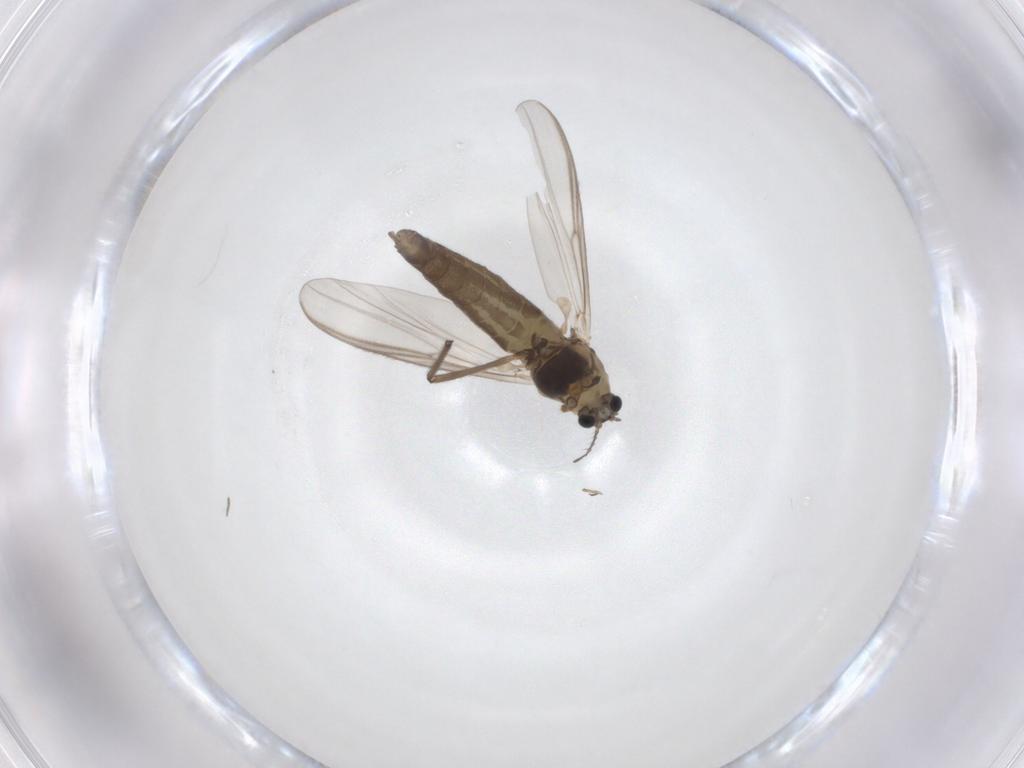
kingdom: Animalia
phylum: Arthropoda
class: Insecta
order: Diptera
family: Chironomidae
